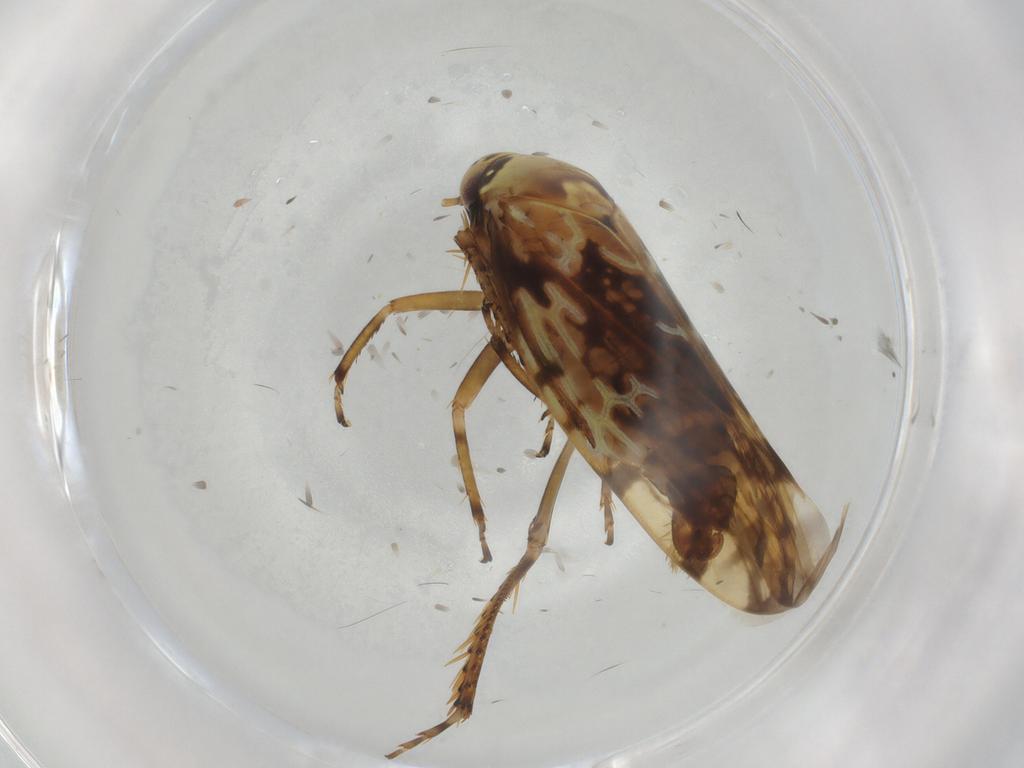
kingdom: Animalia
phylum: Arthropoda
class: Insecta
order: Hemiptera
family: Cicadellidae
